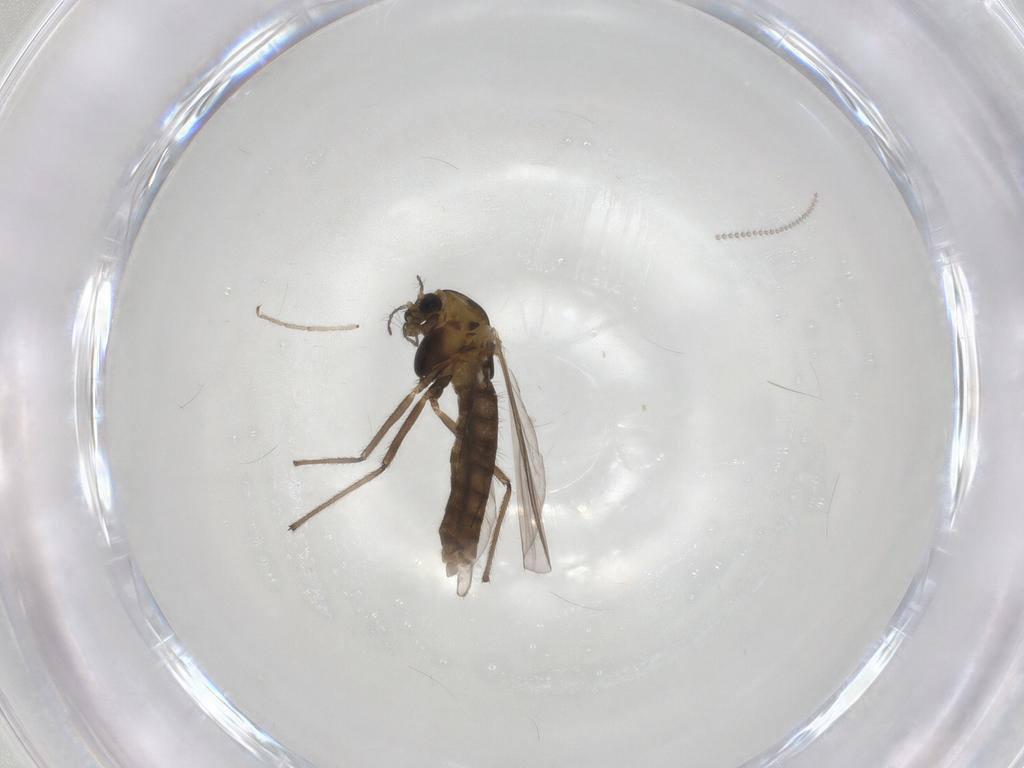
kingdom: Animalia
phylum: Arthropoda
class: Insecta
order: Diptera
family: Chironomidae
